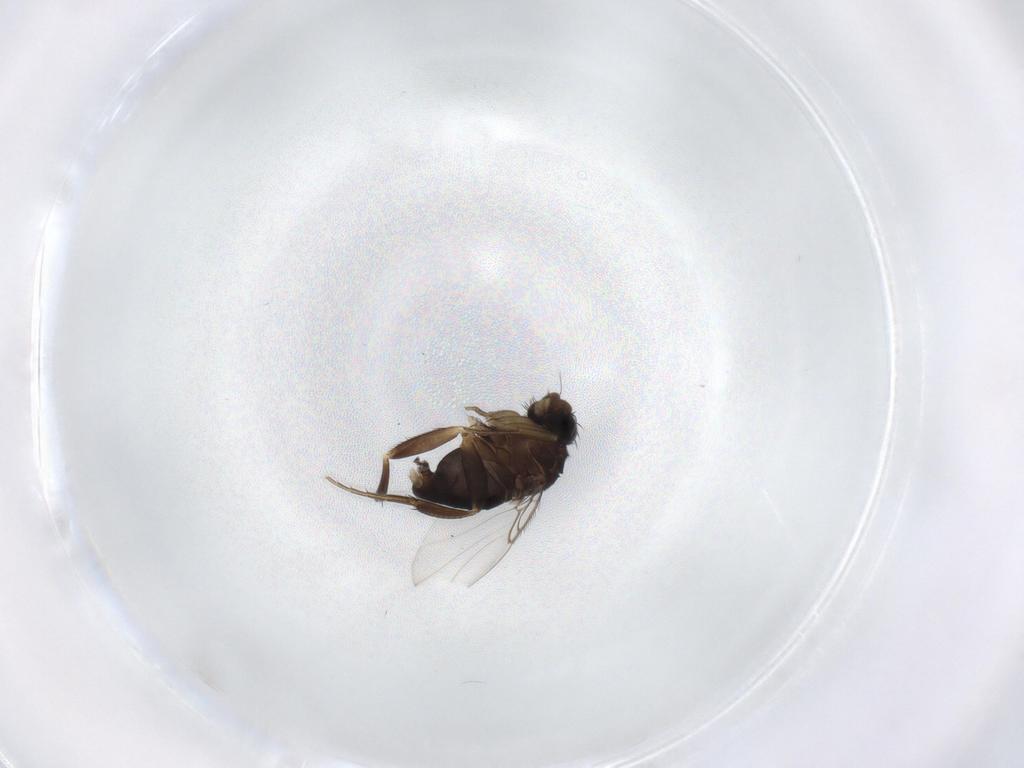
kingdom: Animalia
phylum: Arthropoda
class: Insecta
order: Diptera
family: Phoridae
